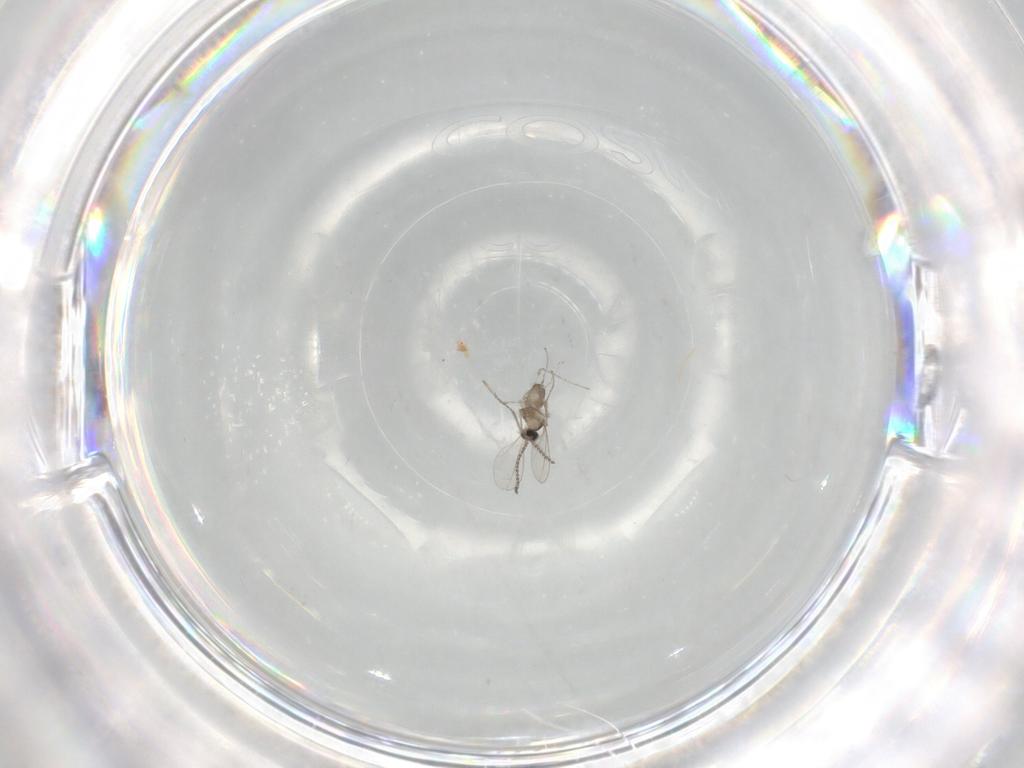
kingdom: Animalia
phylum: Arthropoda
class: Insecta
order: Diptera
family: Cecidomyiidae
